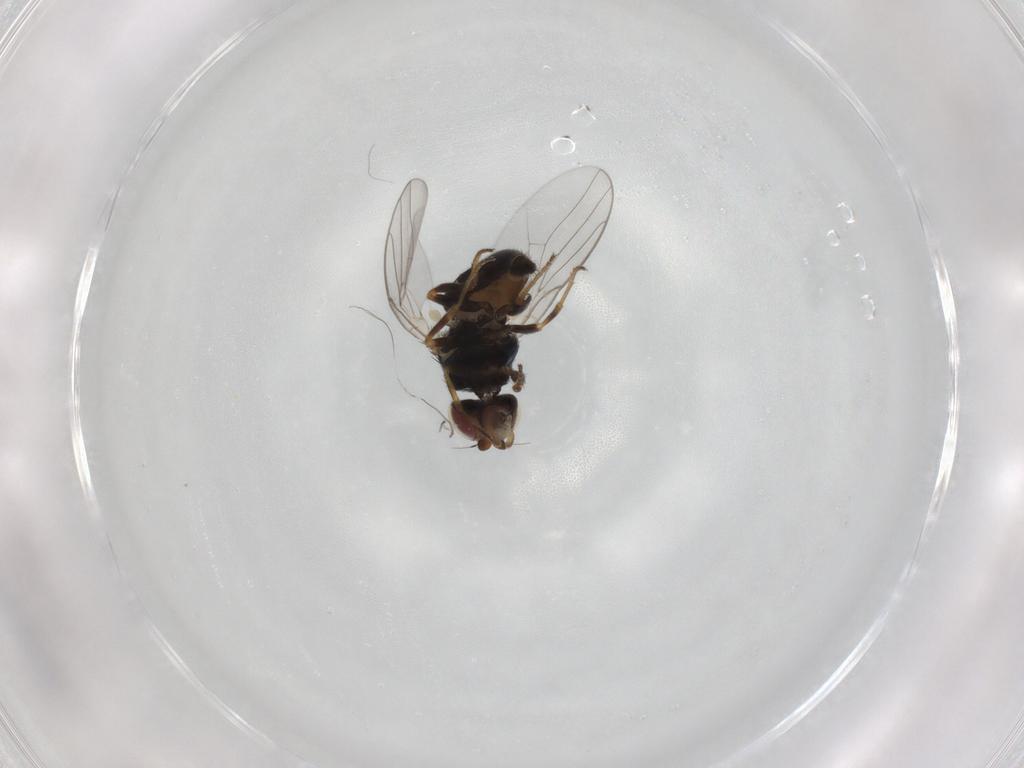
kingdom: Animalia
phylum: Arthropoda
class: Insecta
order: Diptera
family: Chloropidae
